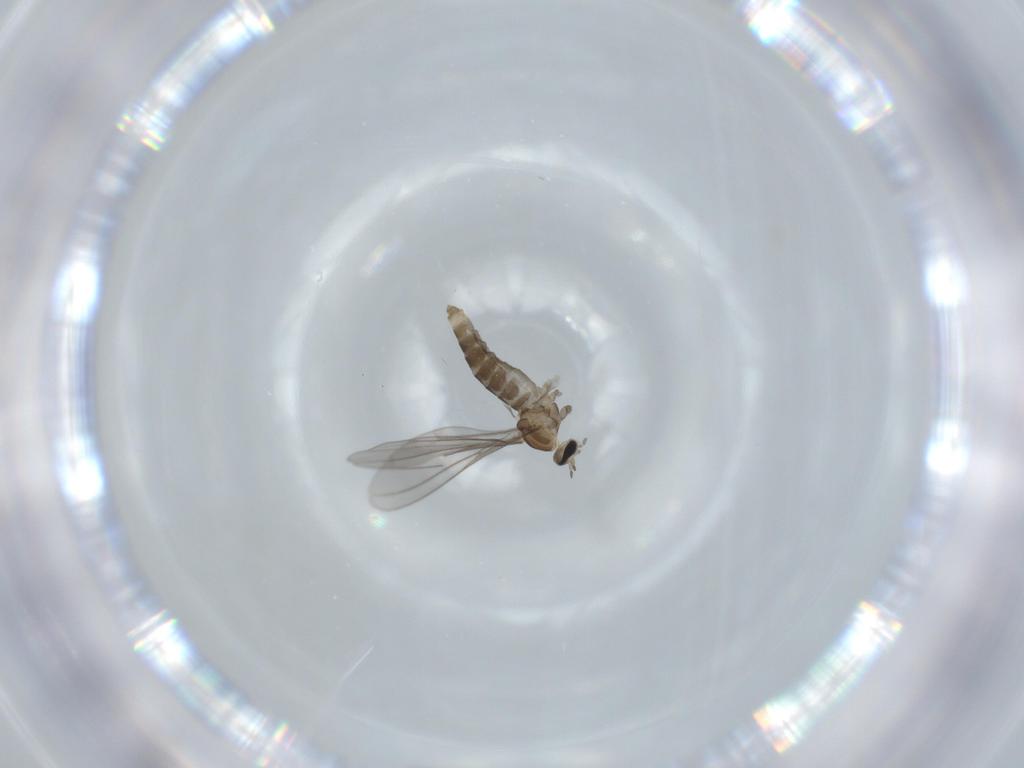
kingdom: Animalia
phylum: Arthropoda
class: Insecta
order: Diptera
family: Cecidomyiidae
